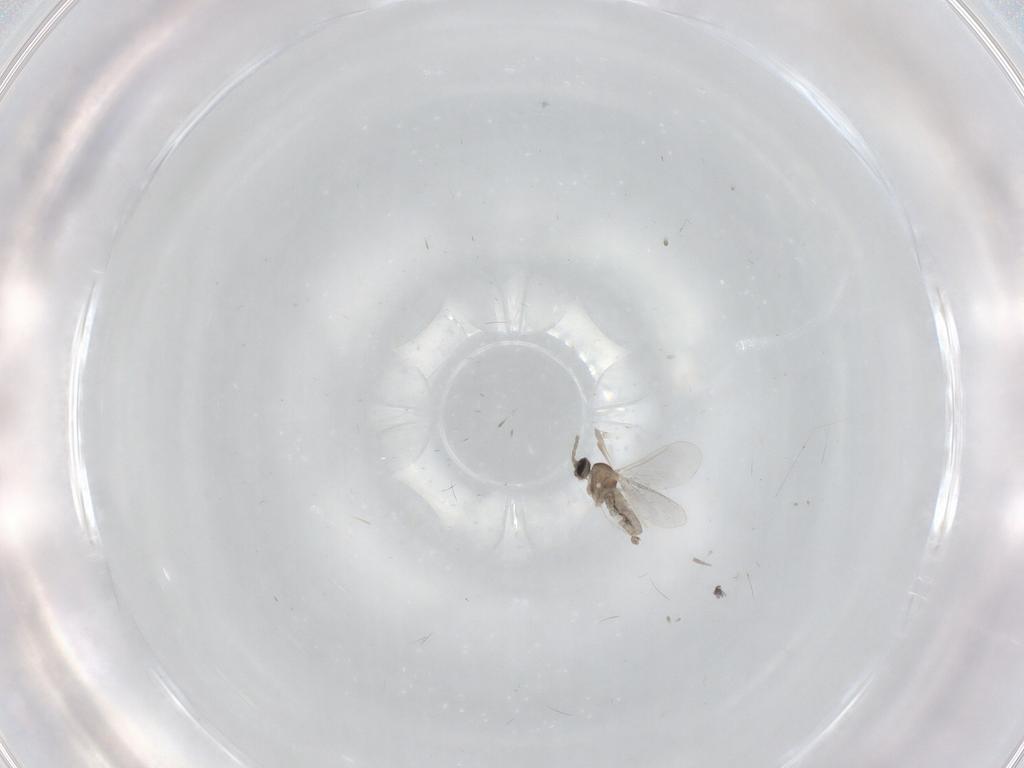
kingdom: Animalia
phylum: Arthropoda
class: Insecta
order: Diptera
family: Cecidomyiidae
